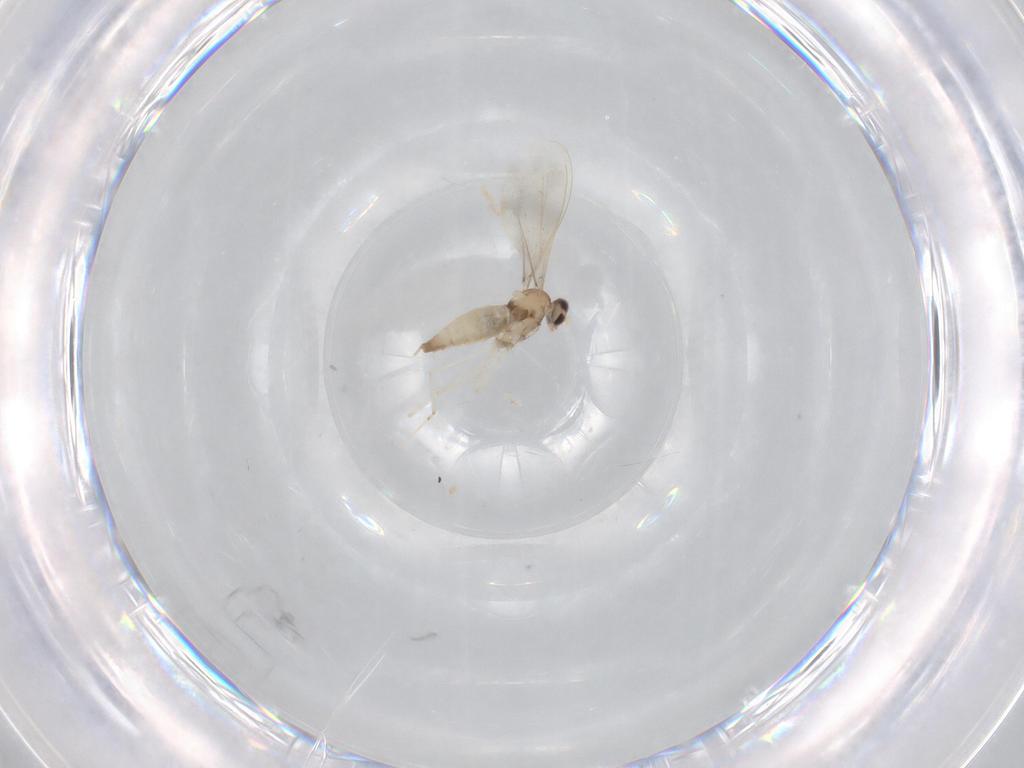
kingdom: Animalia
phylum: Arthropoda
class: Insecta
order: Diptera
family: Cecidomyiidae
